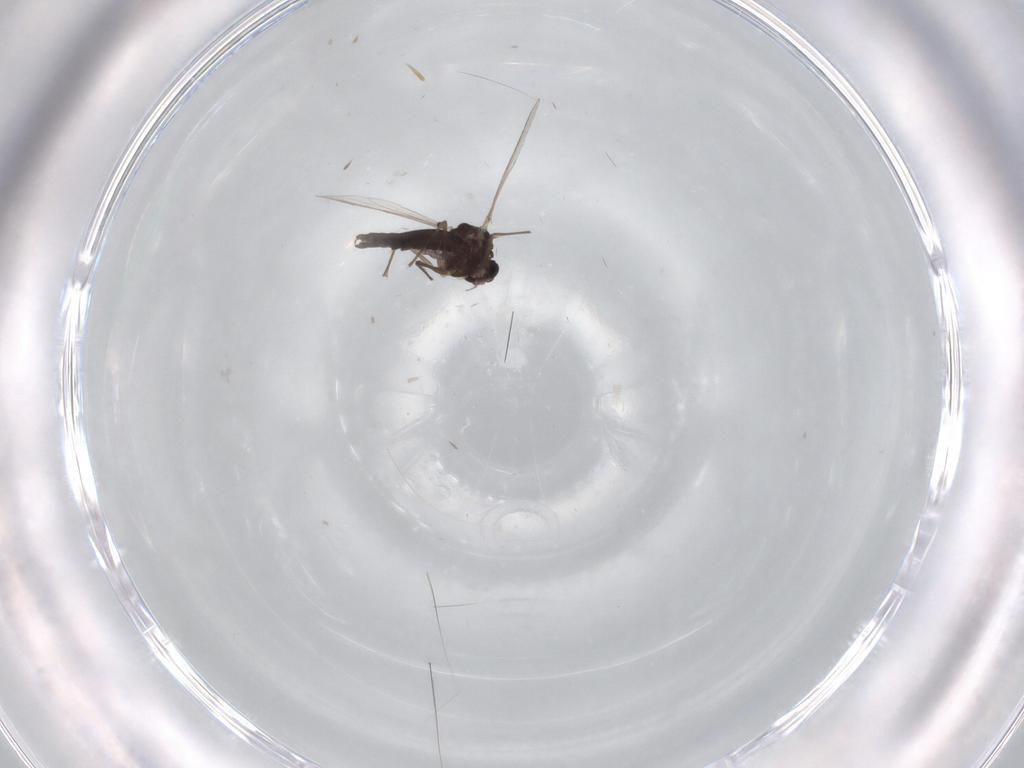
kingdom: Animalia
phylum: Arthropoda
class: Insecta
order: Diptera
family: Chironomidae
